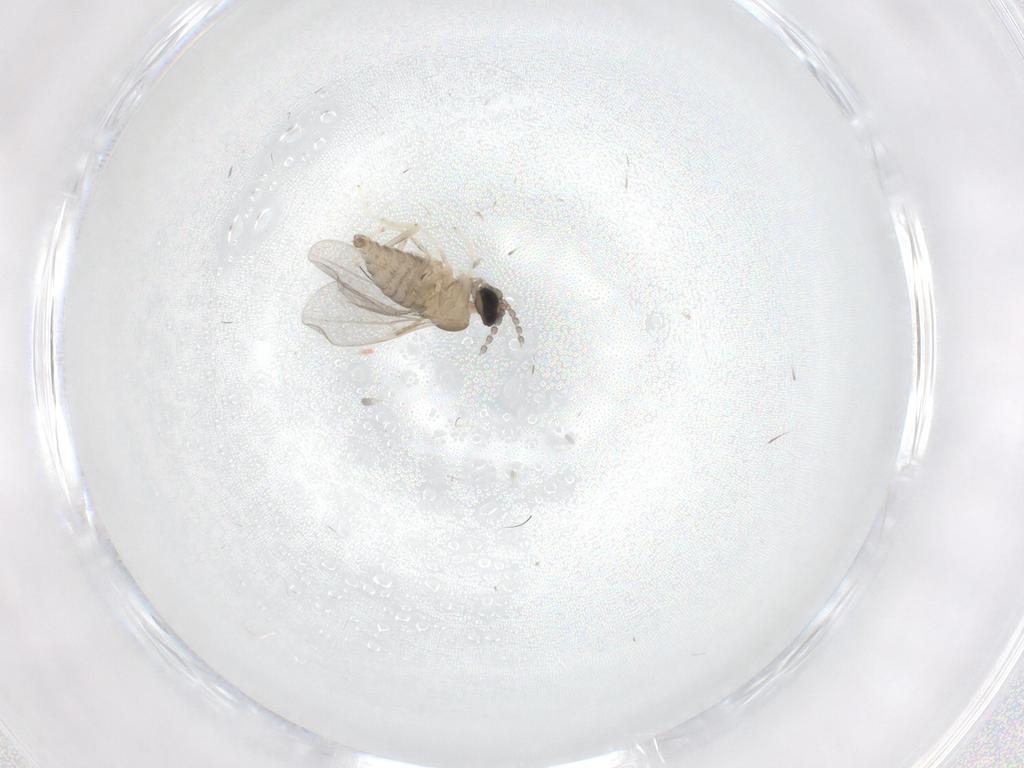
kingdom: Animalia
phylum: Arthropoda
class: Insecta
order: Diptera
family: Psychodidae
